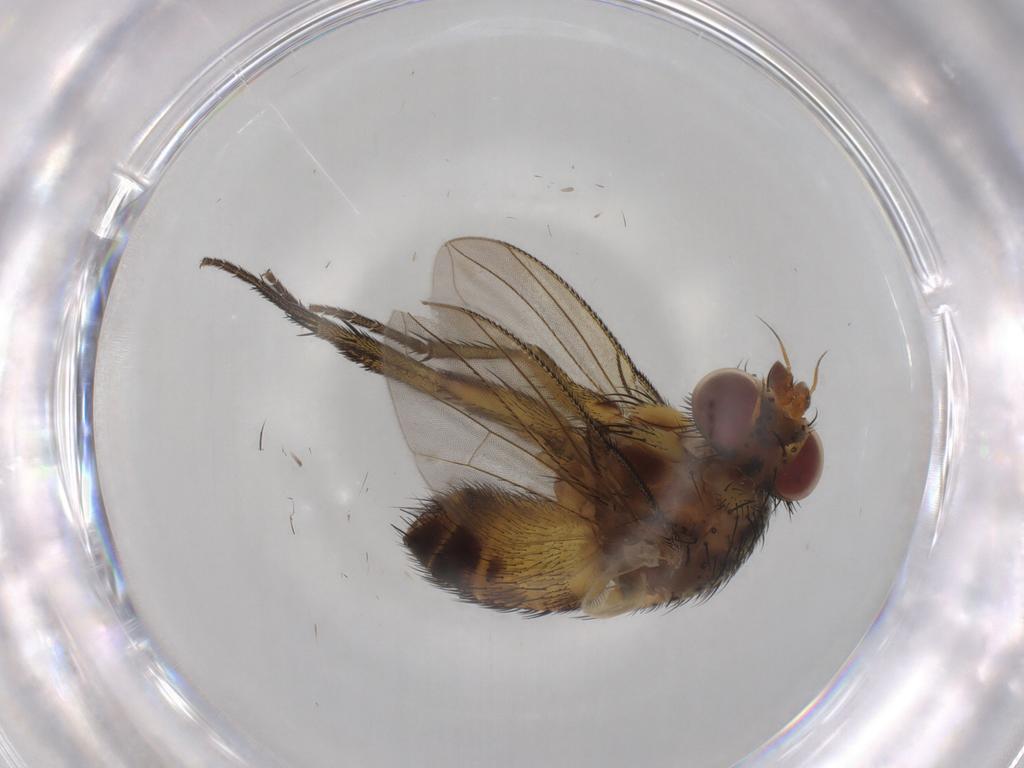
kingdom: Animalia
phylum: Arthropoda
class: Insecta
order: Diptera
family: Tachinidae
